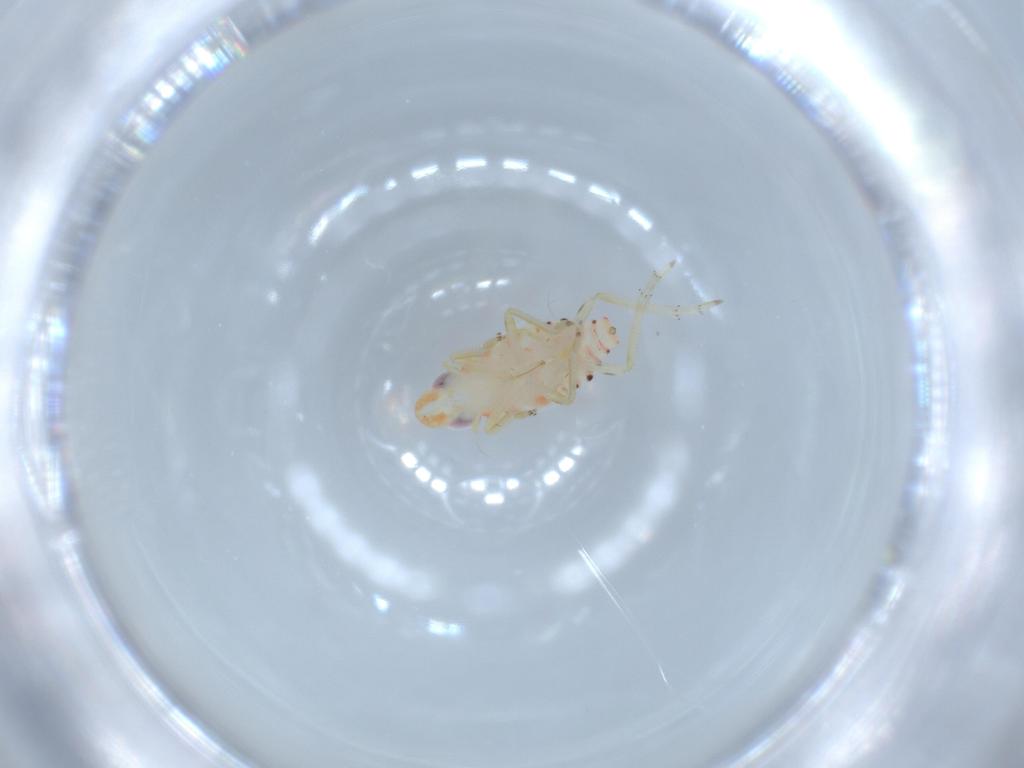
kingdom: Animalia
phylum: Arthropoda
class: Insecta
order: Hemiptera
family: Tropiduchidae
